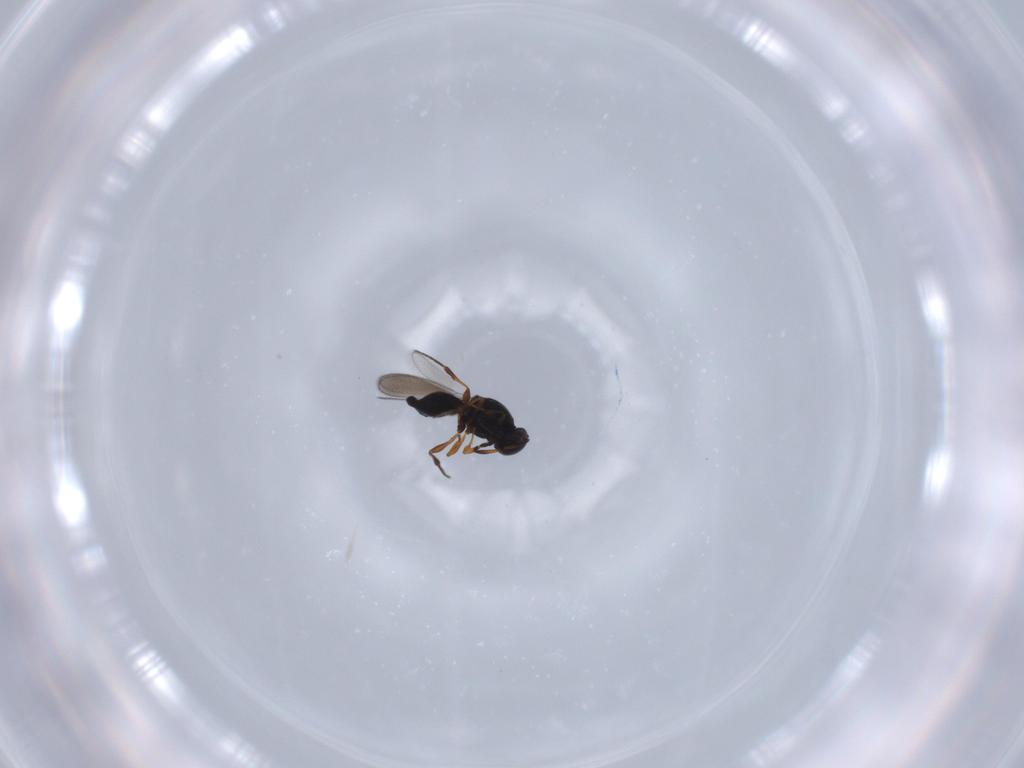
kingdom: Animalia
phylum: Arthropoda
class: Insecta
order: Hymenoptera
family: Platygastridae
